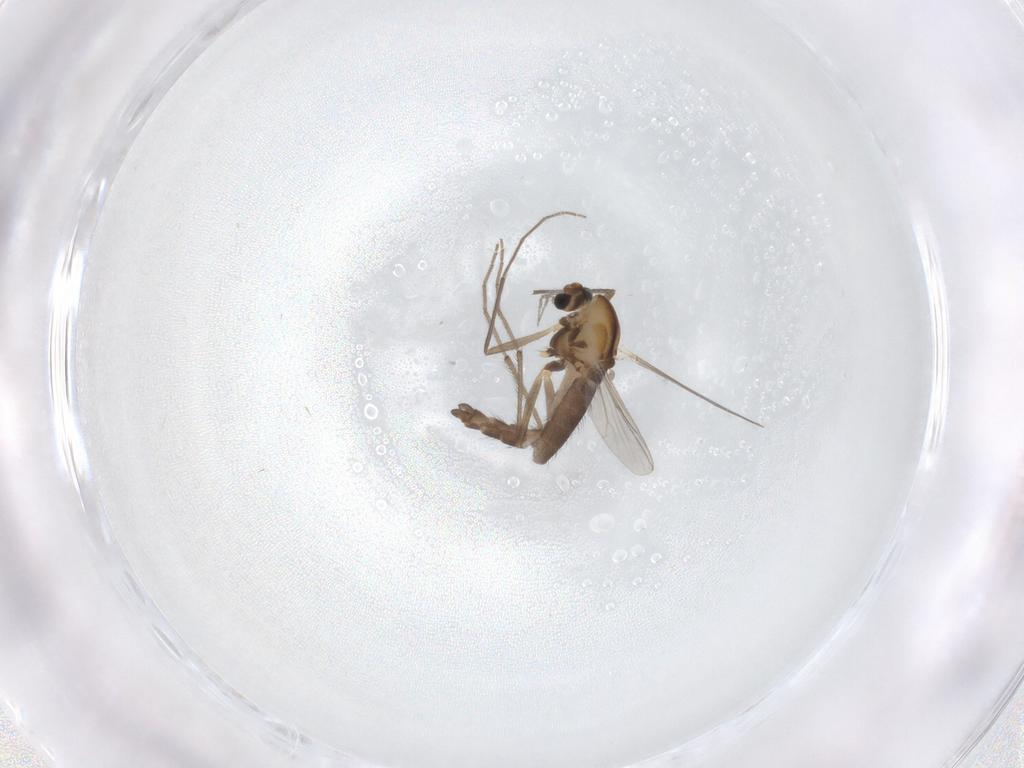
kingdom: Animalia
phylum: Arthropoda
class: Insecta
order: Diptera
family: Chironomidae
